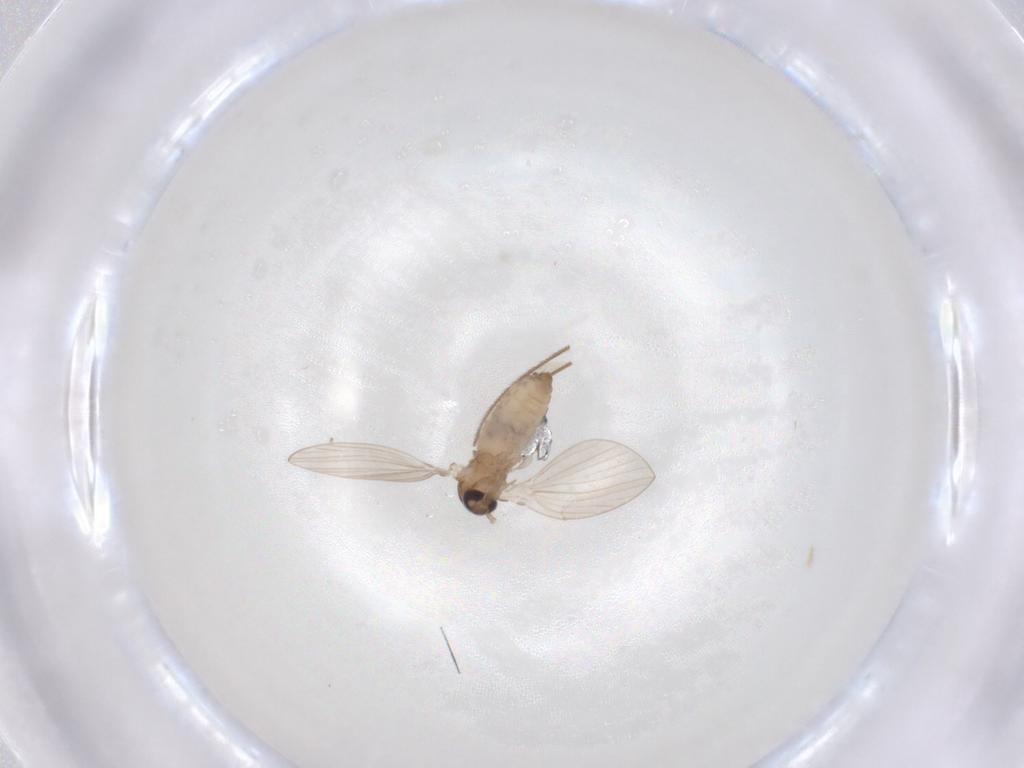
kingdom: Animalia
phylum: Arthropoda
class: Insecta
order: Diptera
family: Psychodidae
